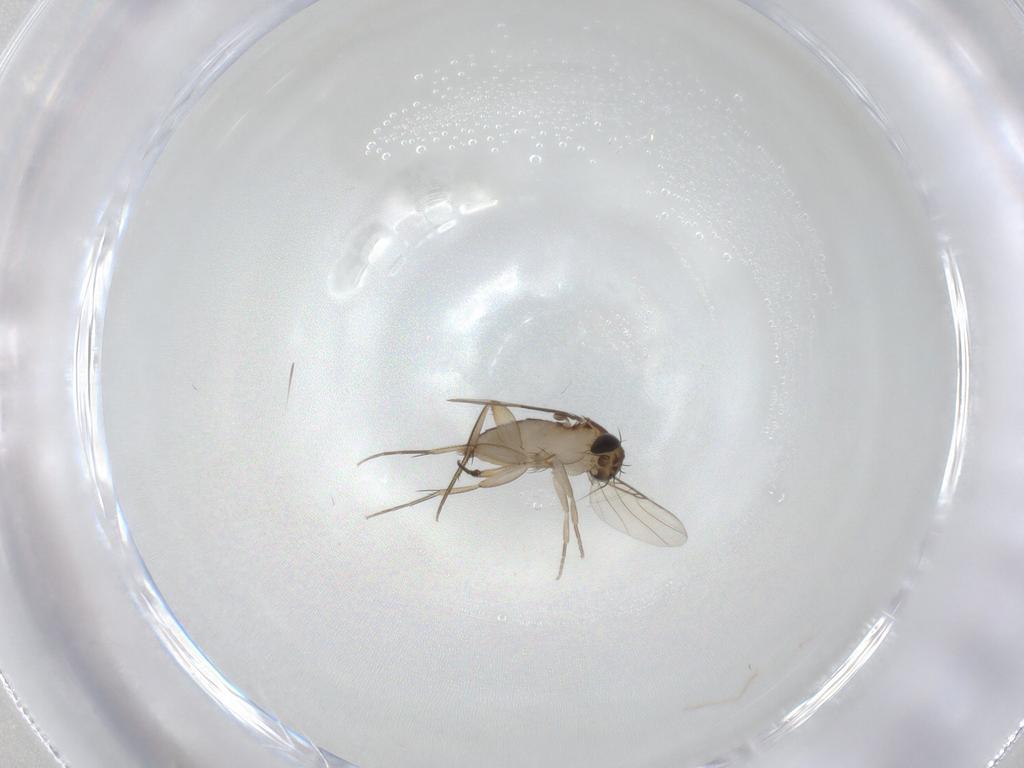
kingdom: Animalia
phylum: Arthropoda
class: Insecta
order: Diptera
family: Phoridae
